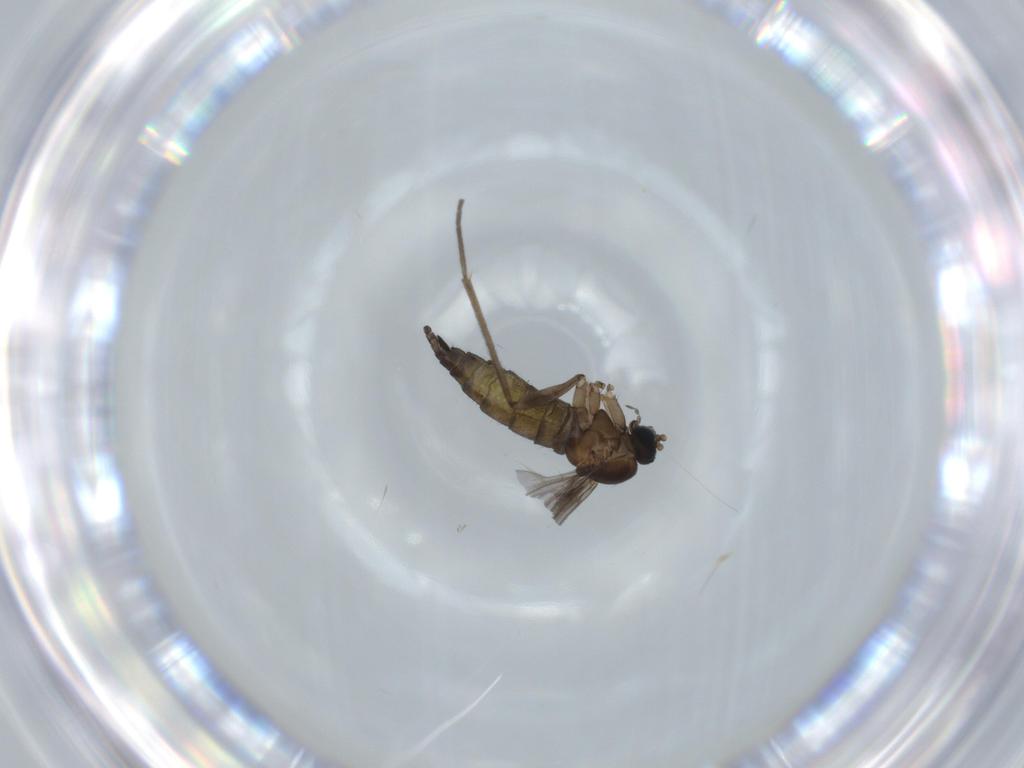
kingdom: Animalia
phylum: Arthropoda
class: Insecta
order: Diptera
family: Sciaridae
